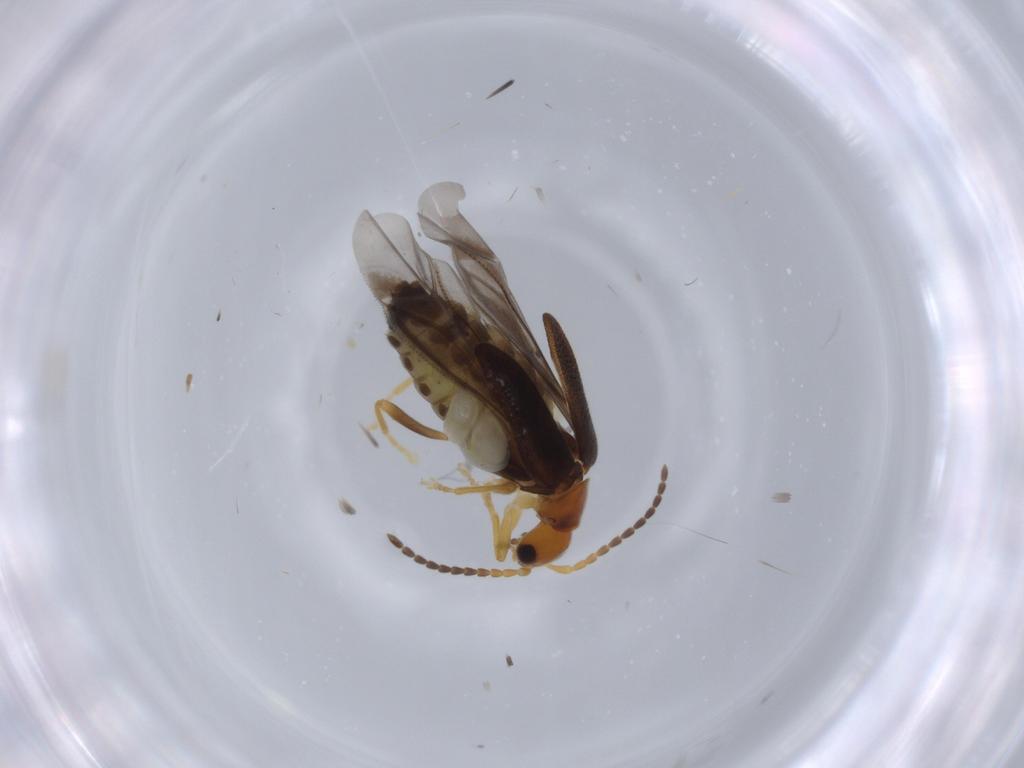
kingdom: Animalia
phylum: Arthropoda
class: Insecta
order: Coleoptera
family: Cantharidae
